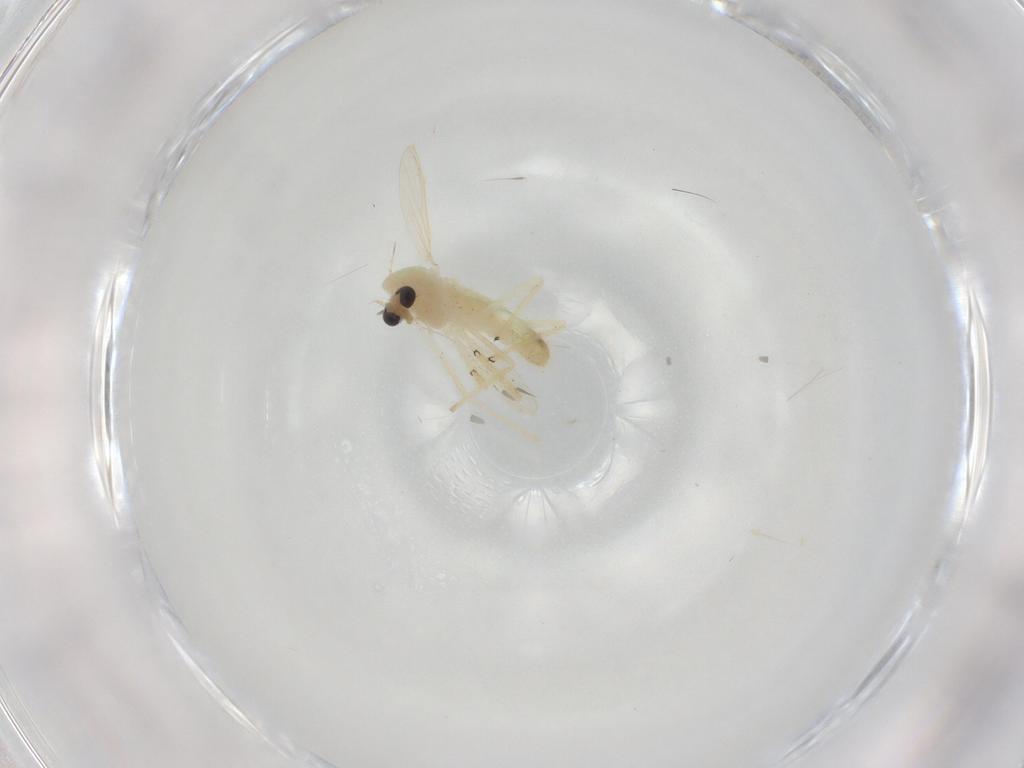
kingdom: Animalia
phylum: Arthropoda
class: Insecta
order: Diptera
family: Chironomidae
